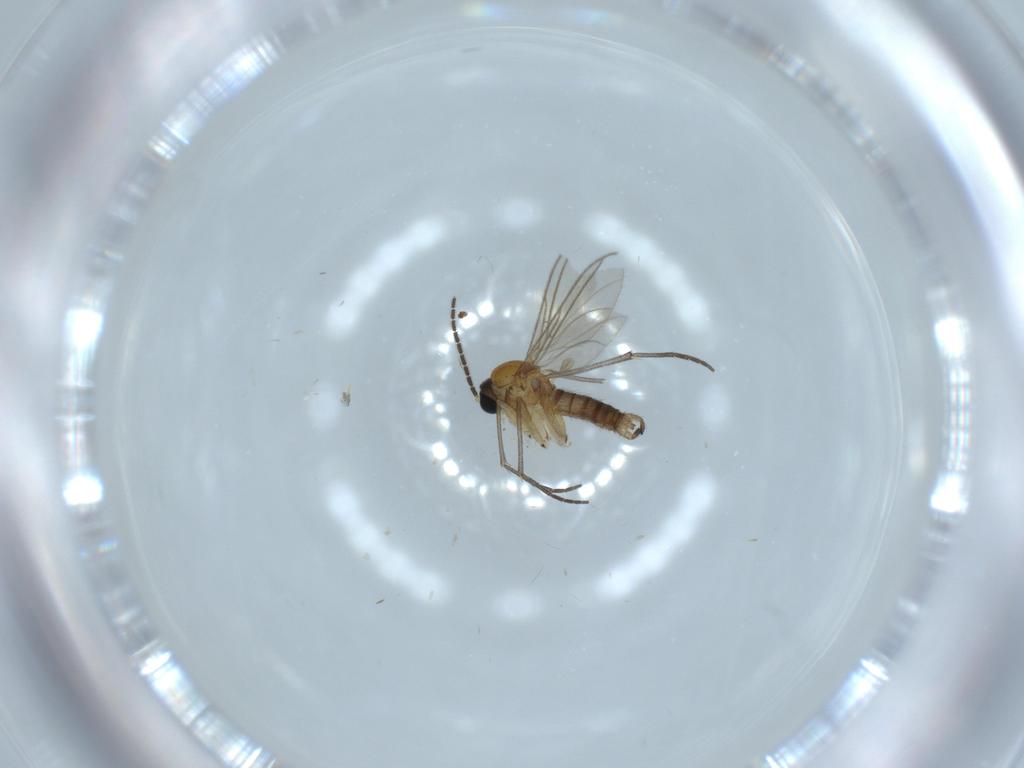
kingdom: Animalia
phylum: Arthropoda
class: Insecta
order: Diptera
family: Sciaridae
